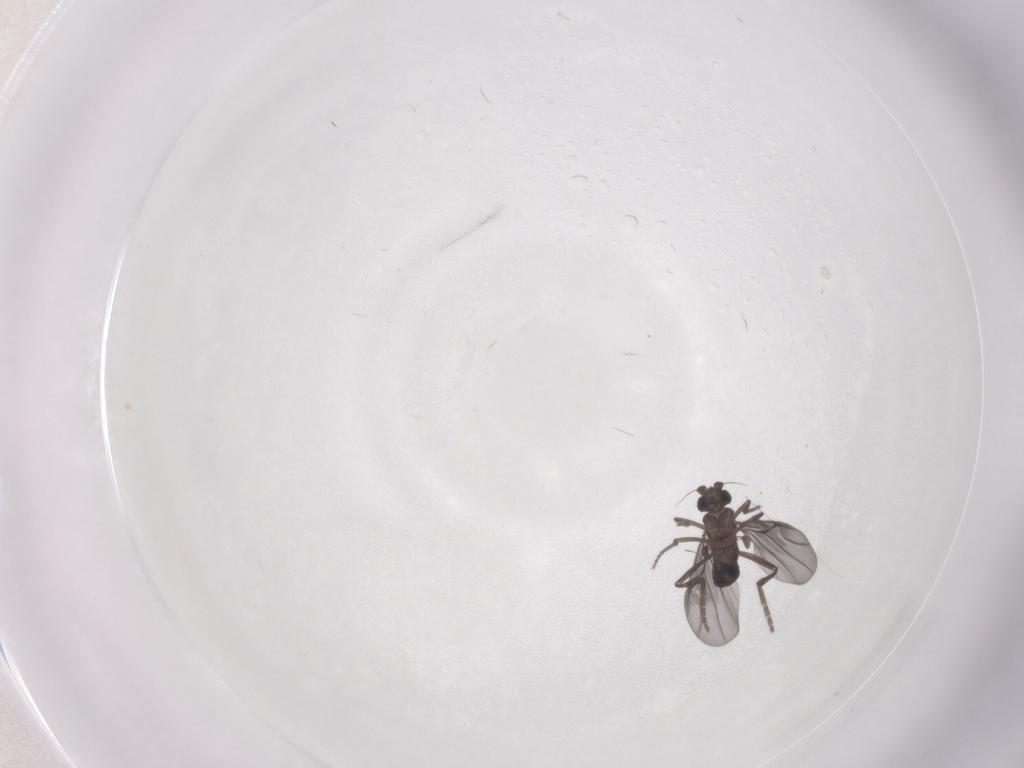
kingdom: Animalia
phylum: Arthropoda
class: Insecta
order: Diptera
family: Phoridae
